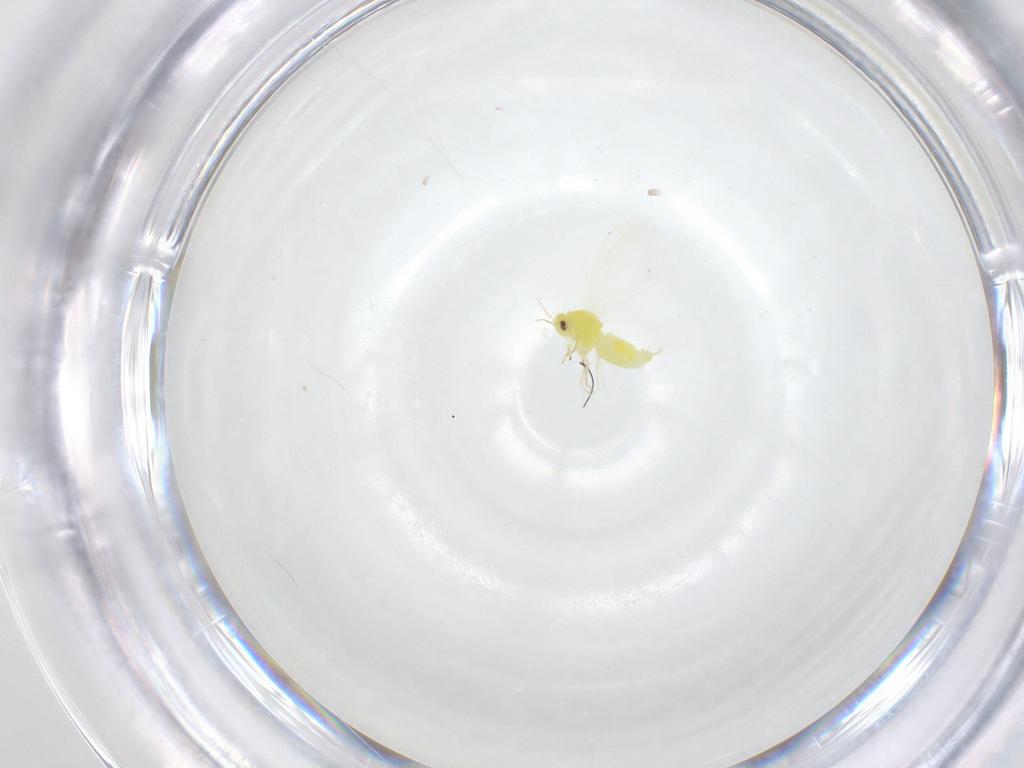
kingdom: Animalia
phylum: Arthropoda
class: Insecta
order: Hemiptera
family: Aleyrodidae
